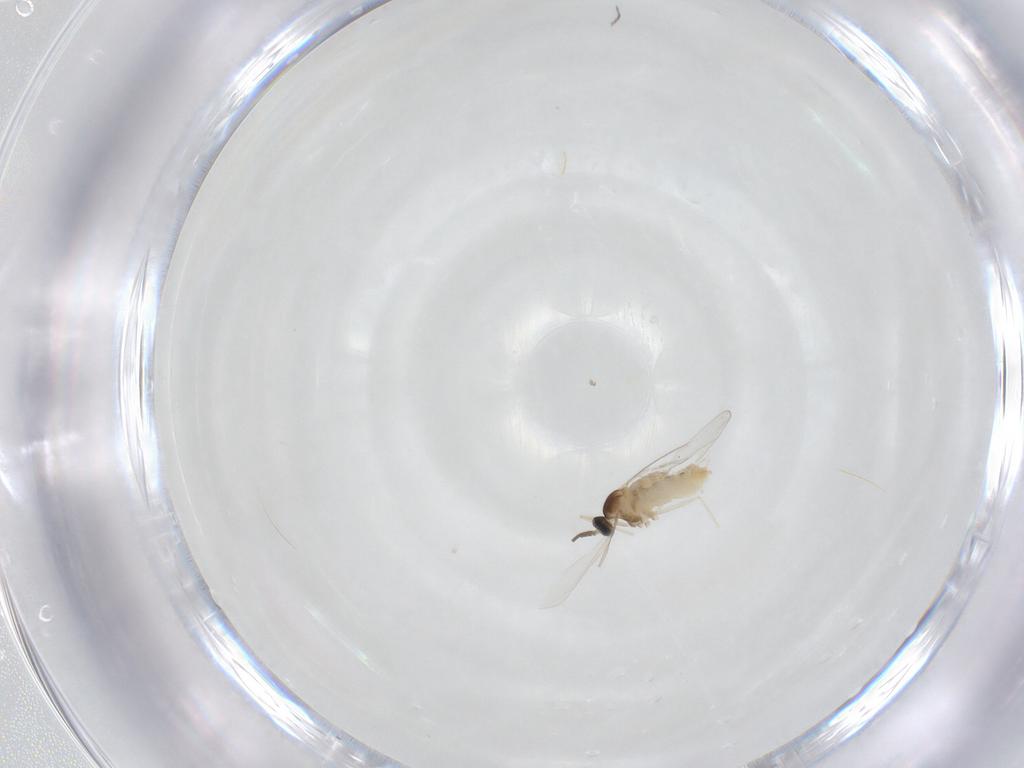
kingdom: Animalia
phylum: Arthropoda
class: Insecta
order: Diptera
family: Cecidomyiidae
